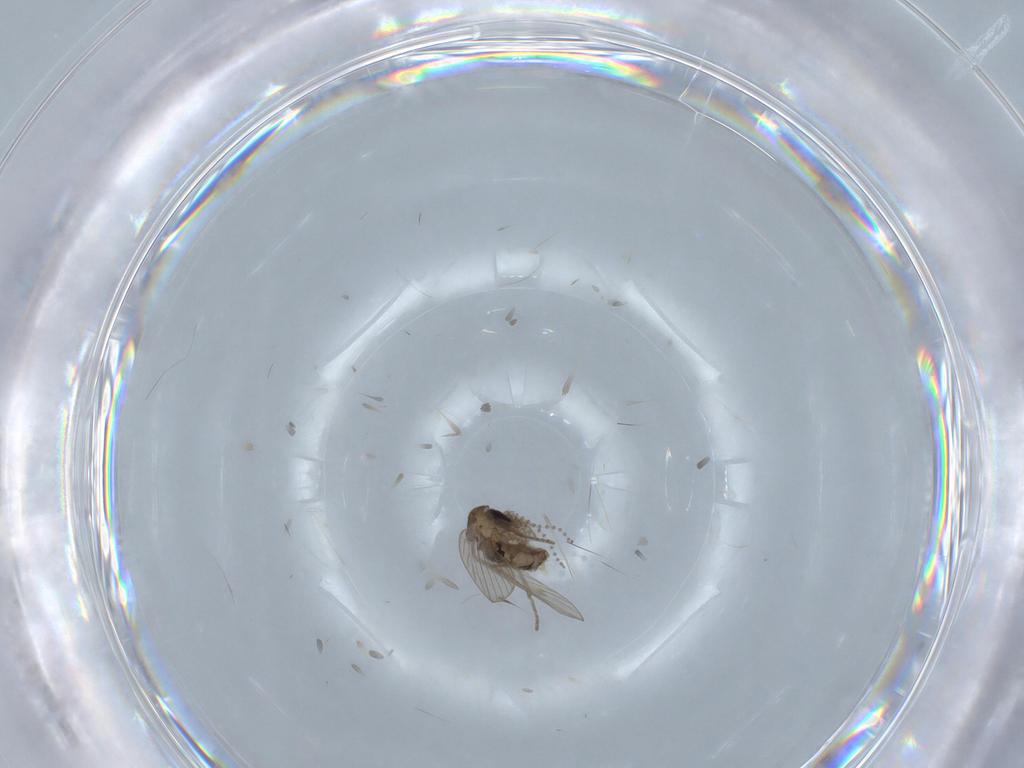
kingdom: Animalia
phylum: Arthropoda
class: Insecta
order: Diptera
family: Psychodidae
